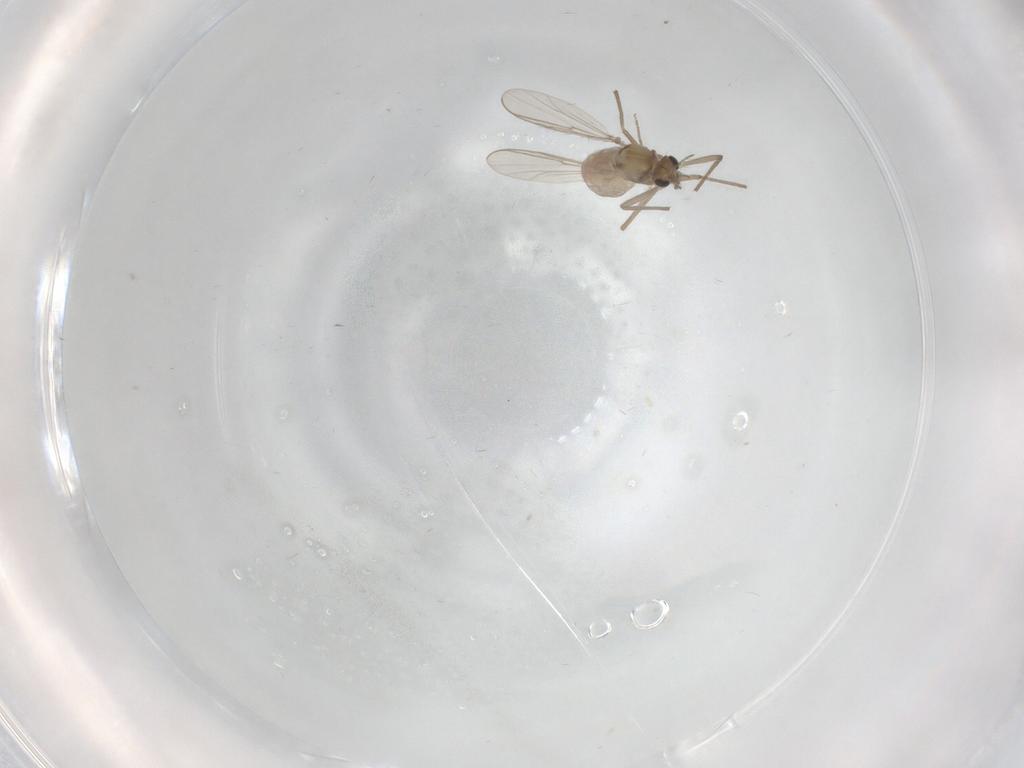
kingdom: Animalia
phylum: Arthropoda
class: Insecta
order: Diptera
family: Chironomidae
